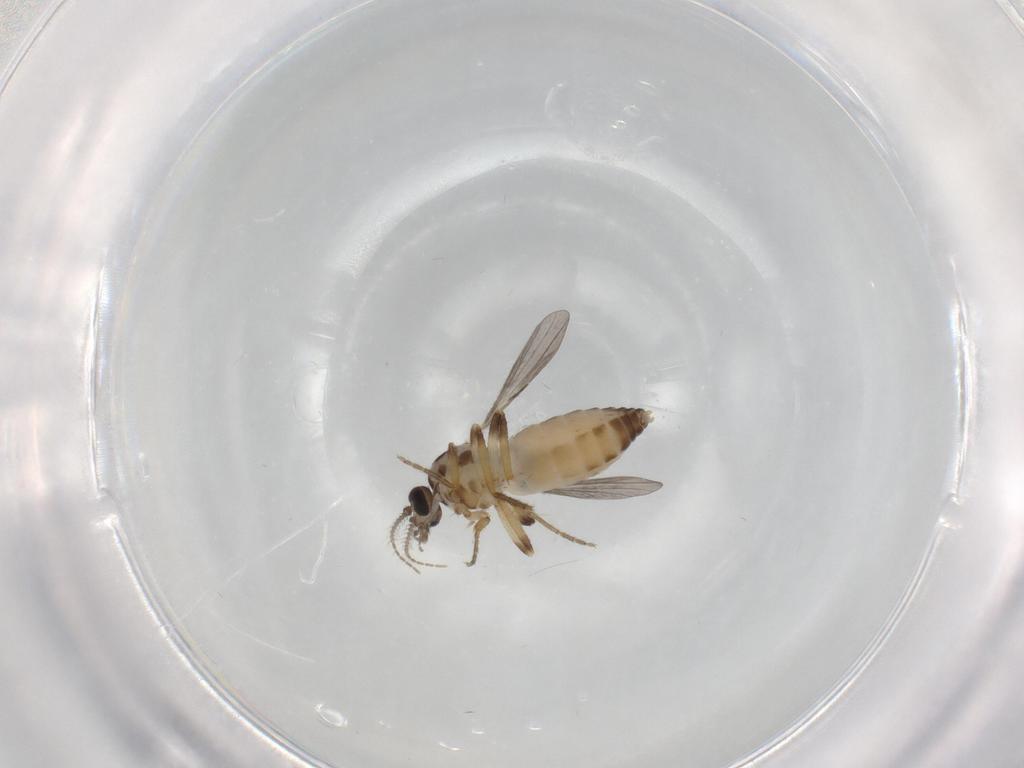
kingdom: Animalia
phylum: Arthropoda
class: Insecta
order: Diptera
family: Ceratopogonidae
